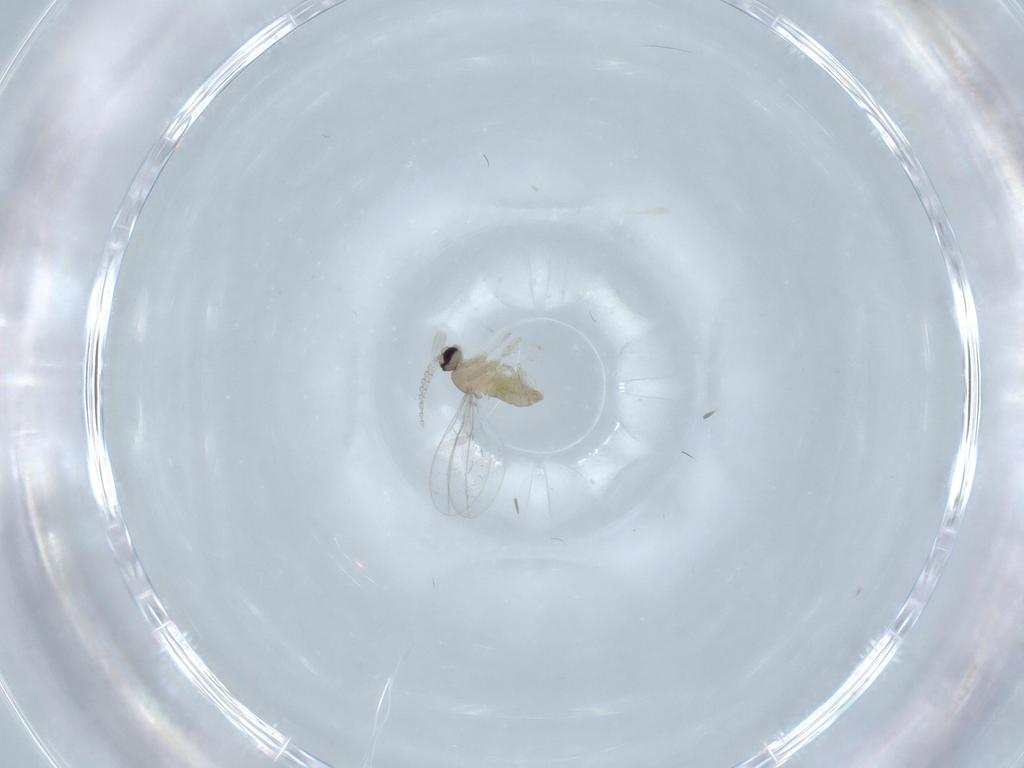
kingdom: Animalia
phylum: Arthropoda
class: Insecta
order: Diptera
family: Cecidomyiidae
